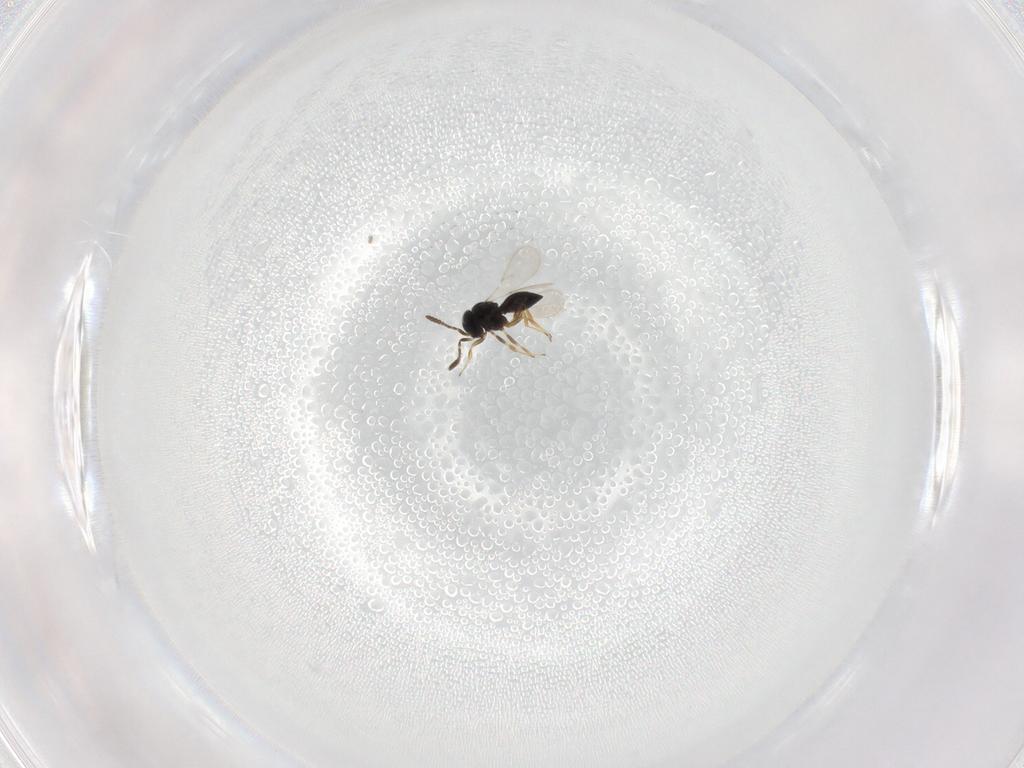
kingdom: Animalia
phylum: Arthropoda
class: Insecta
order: Hymenoptera
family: Scelionidae
